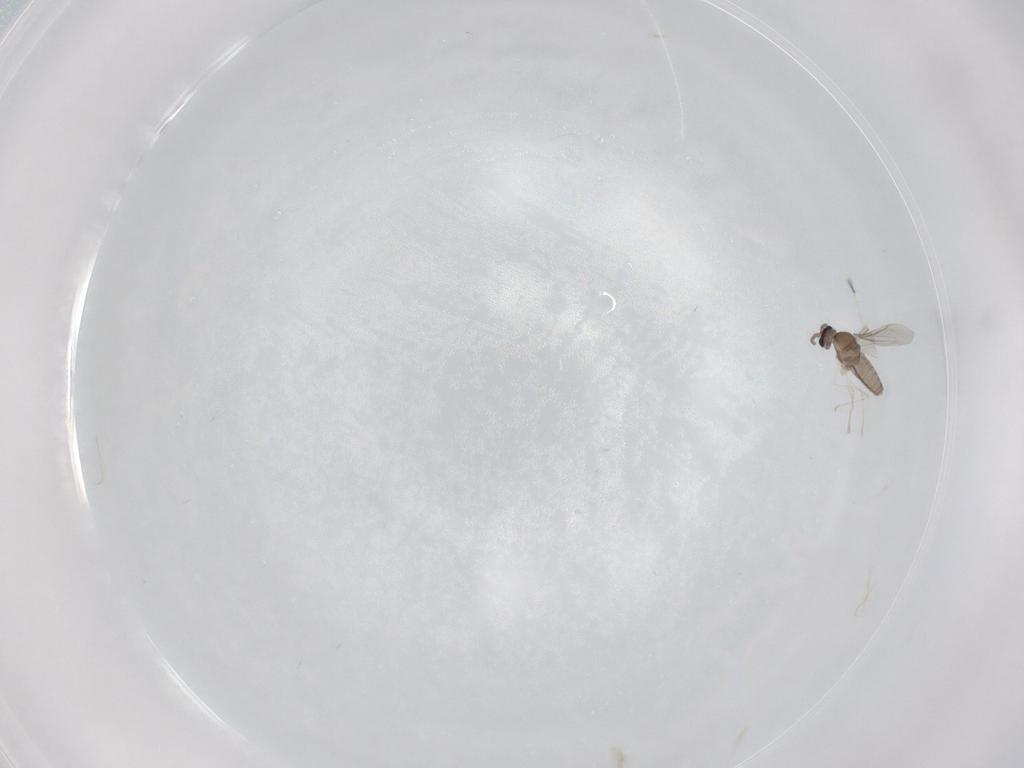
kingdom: Animalia
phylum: Arthropoda
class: Insecta
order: Diptera
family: Cecidomyiidae
